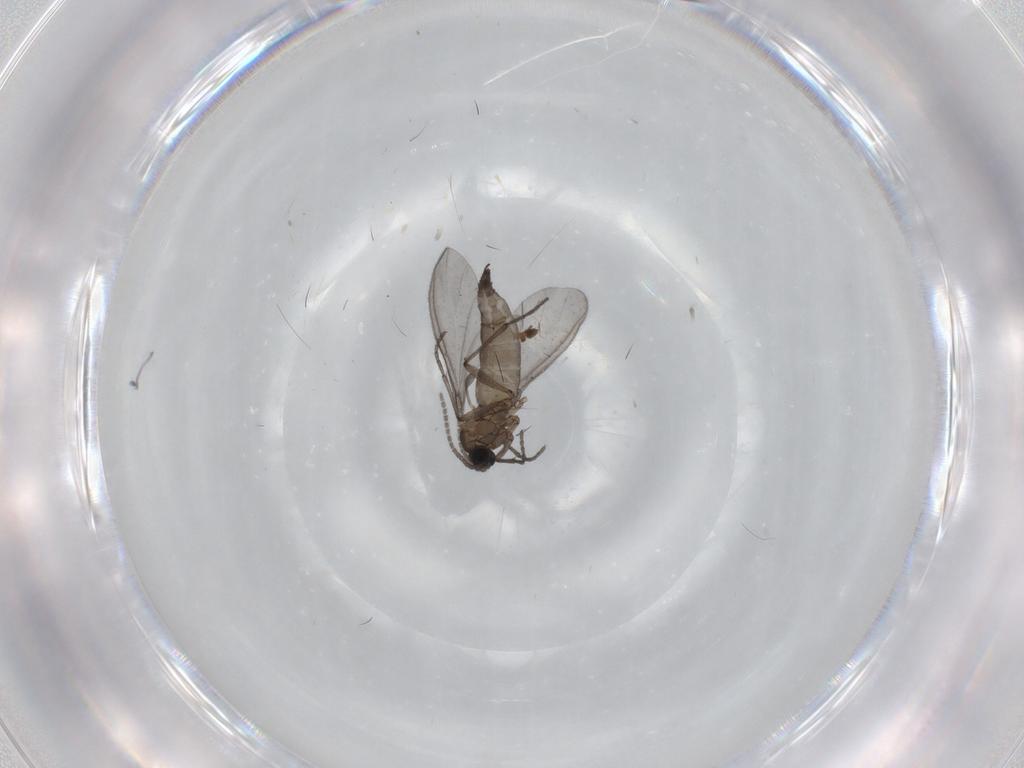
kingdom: Animalia
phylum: Arthropoda
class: Insecta
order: Diptera
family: Sciaridae
